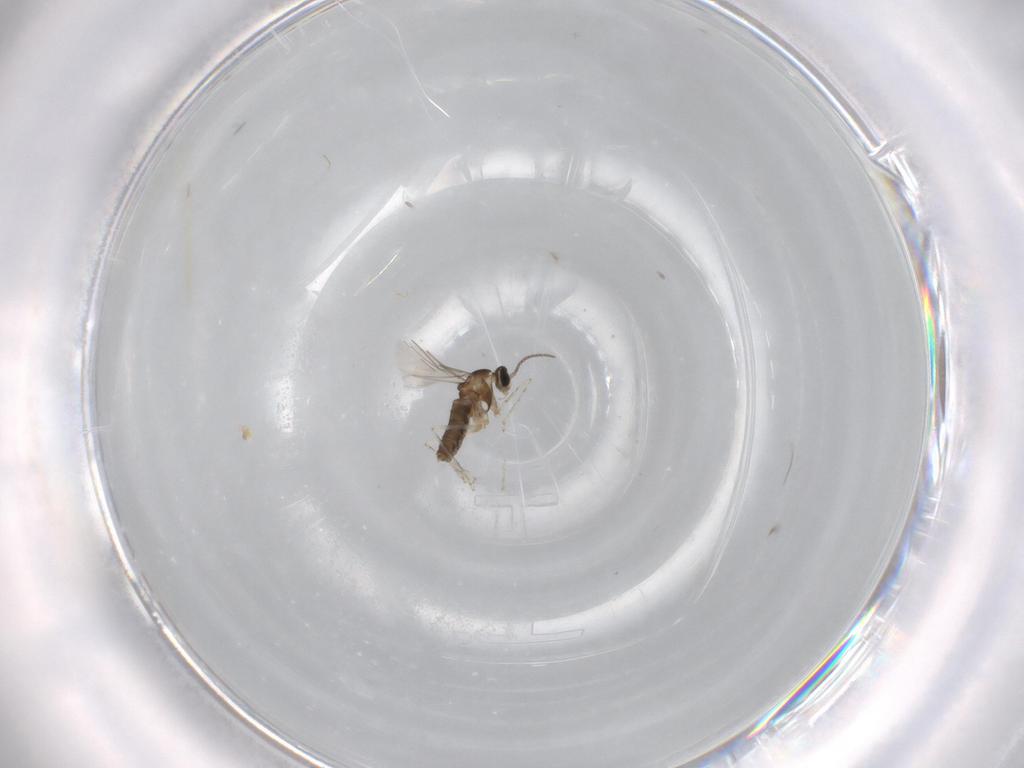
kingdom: Animalia
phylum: Arthropoda
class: Insecta
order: Diptera
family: Cecidomyiidae
